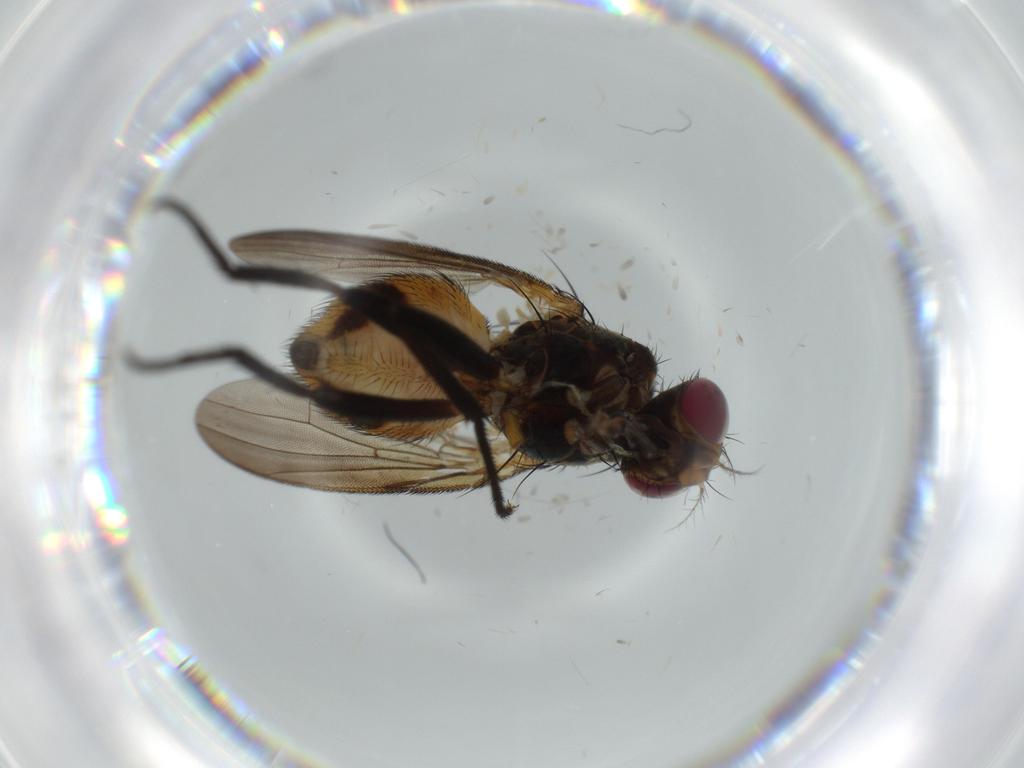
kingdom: Animalia
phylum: Arthropoda
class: Insecta
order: Diptera
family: Anthomyiidae
